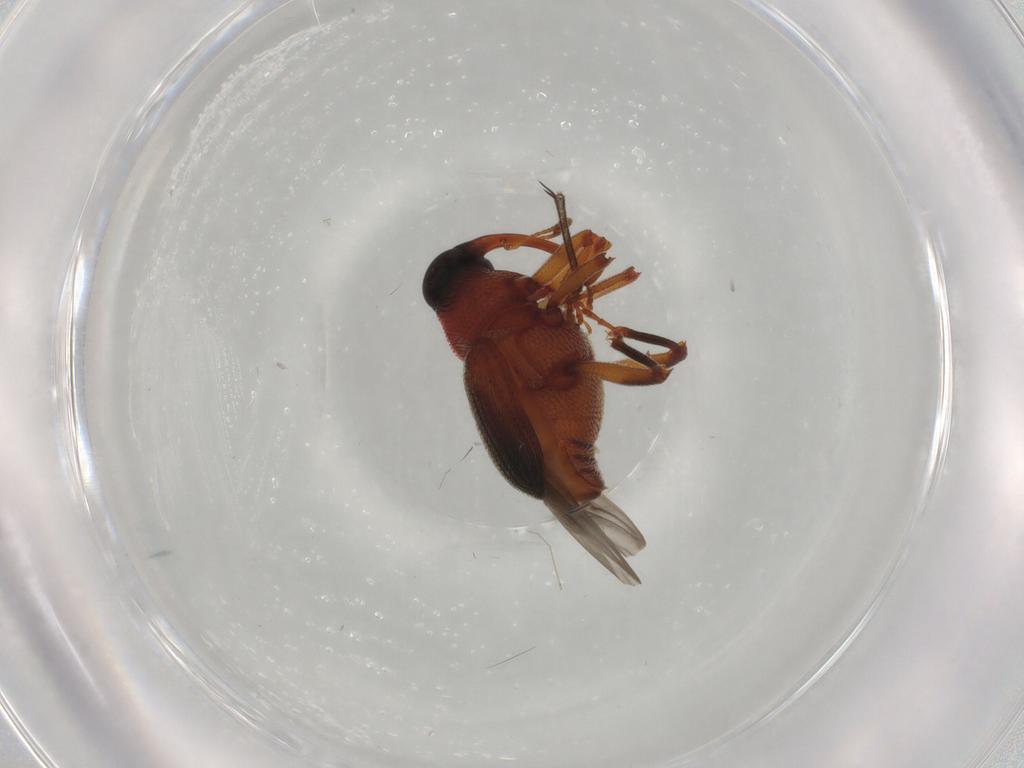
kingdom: Animalia
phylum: Arthropoda
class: Insecta
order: Coleoptera
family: Curculionidae
